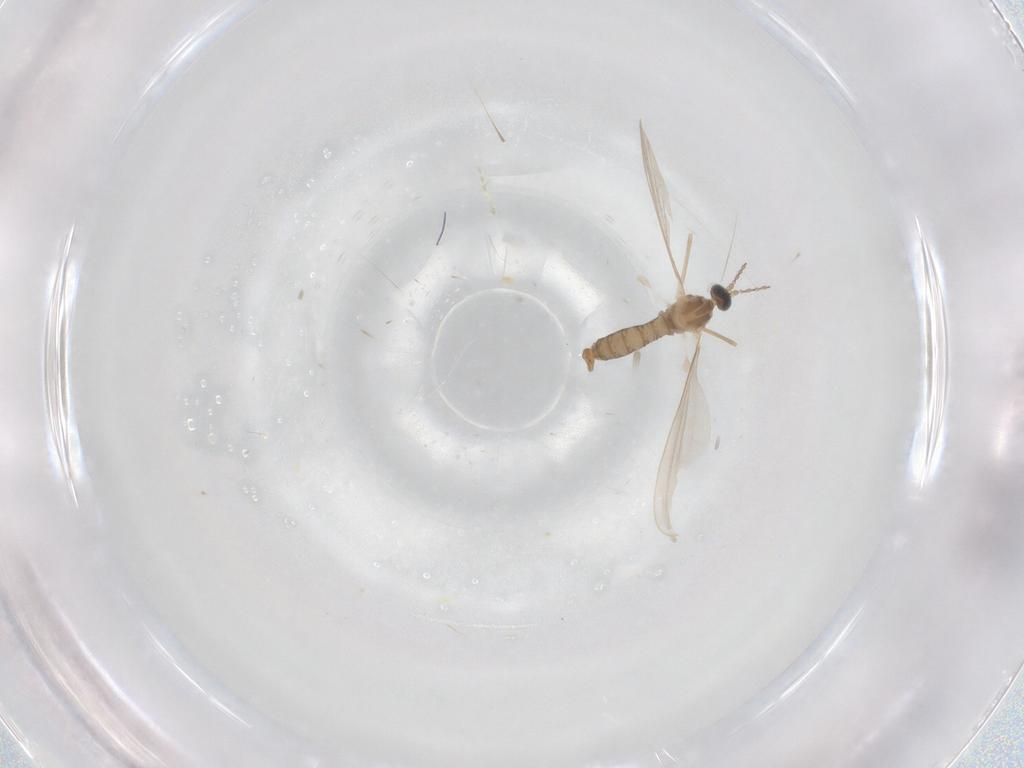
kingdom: Animalia
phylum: Arthropoda
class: Insecta
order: Diptera
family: Cecidomyiidae
